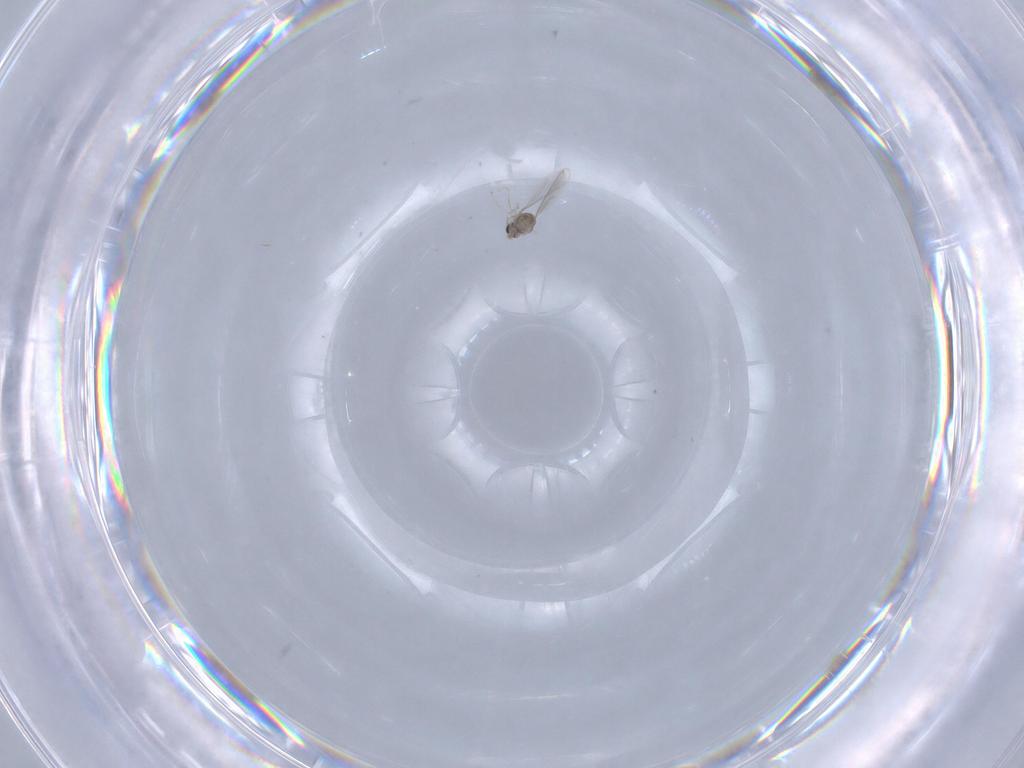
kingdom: Animalia
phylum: Arthropoda
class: Insecta
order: Diptera
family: Cecidomyiidae
